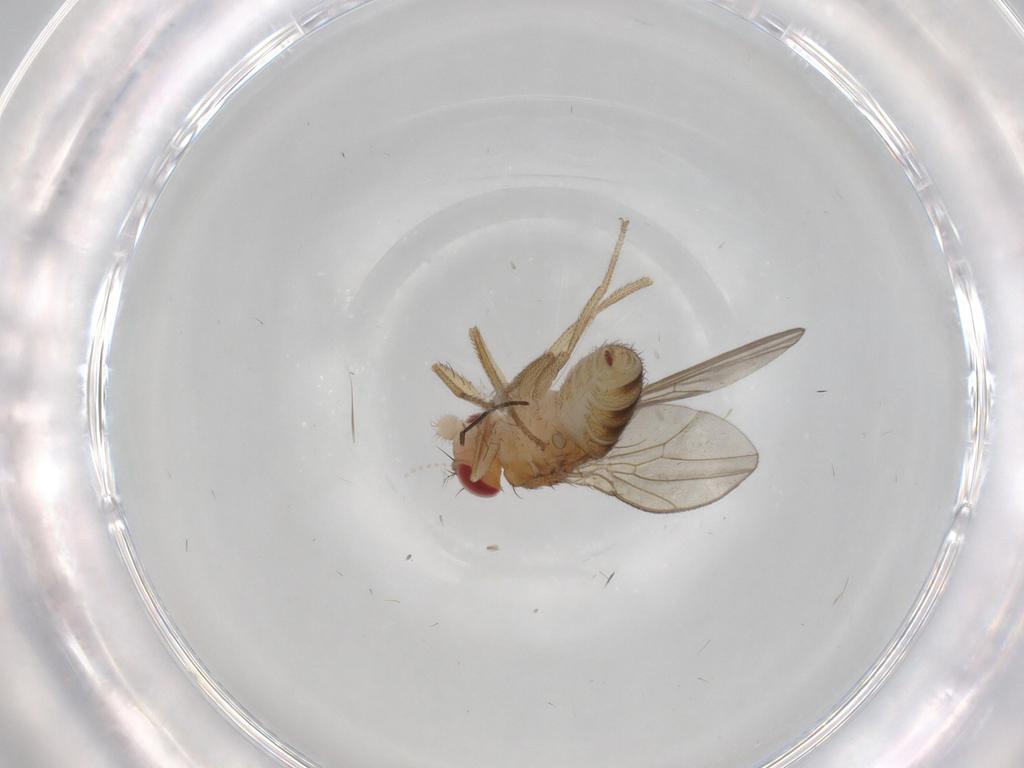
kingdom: Animalia
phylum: Arthropoda
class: Insecta
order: Diptera
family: Drosophilidae
